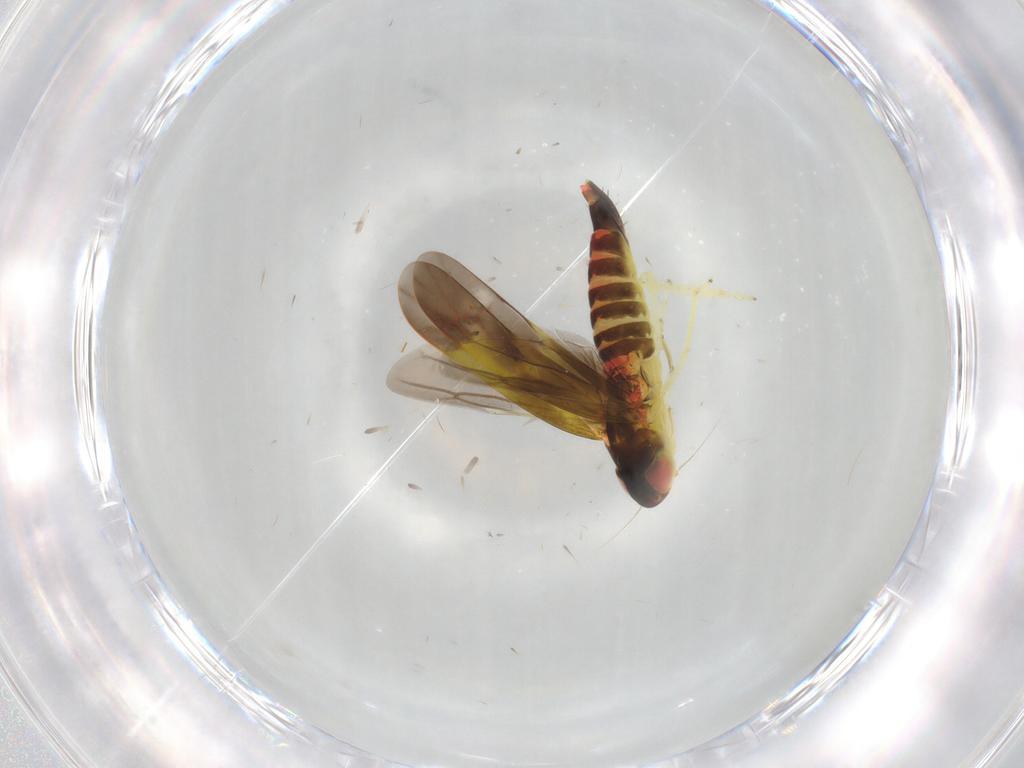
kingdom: Animalia
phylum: Arthropoda
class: Insecta
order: Hemiptera
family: Cicadellidae
